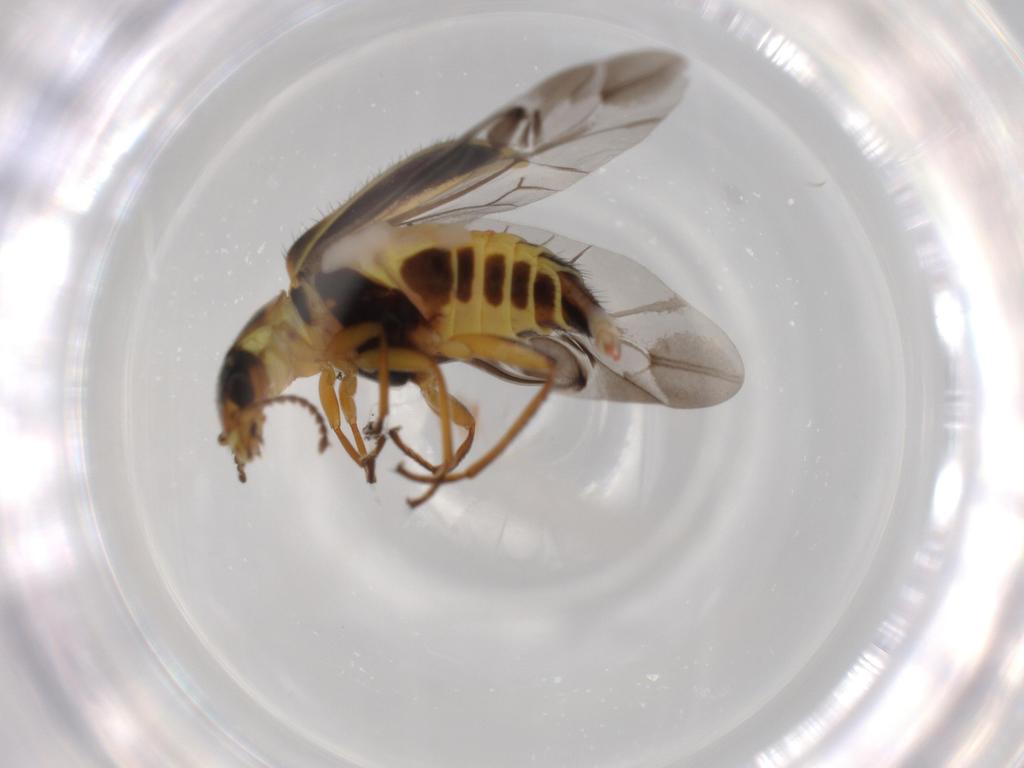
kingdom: Animalia
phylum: Arthropoda
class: Insecta
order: Coleoptera
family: Melyridae
